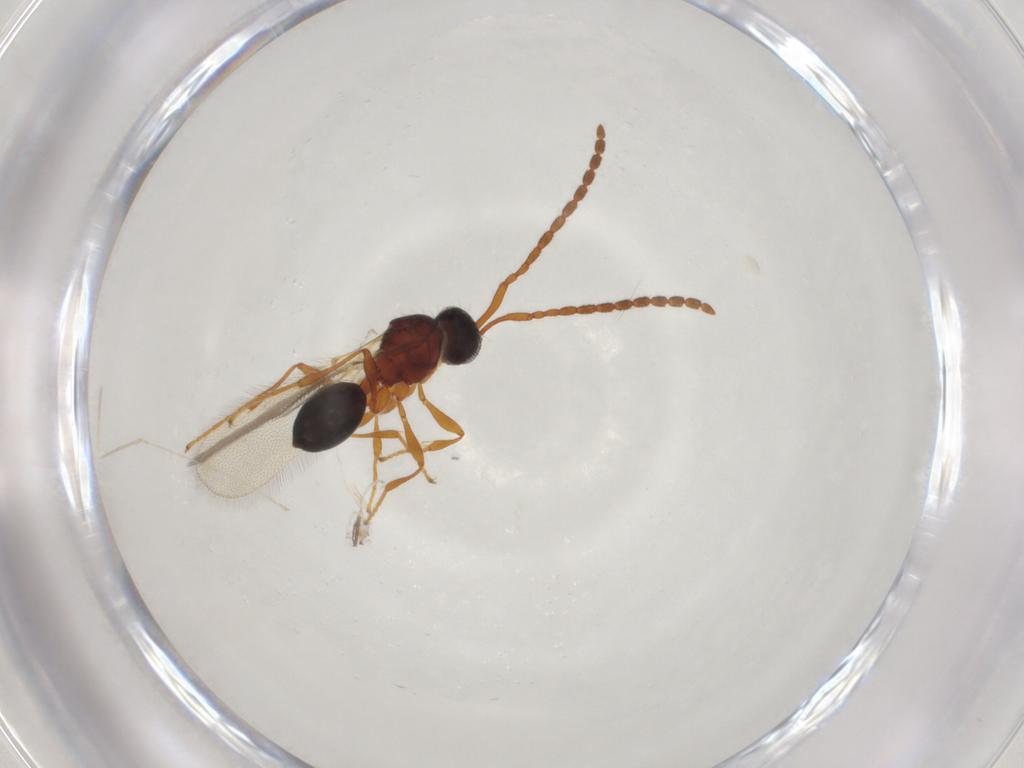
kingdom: Animalia
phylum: Arthropoda
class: Insecta
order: Hymenoptera
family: Diapriidae
